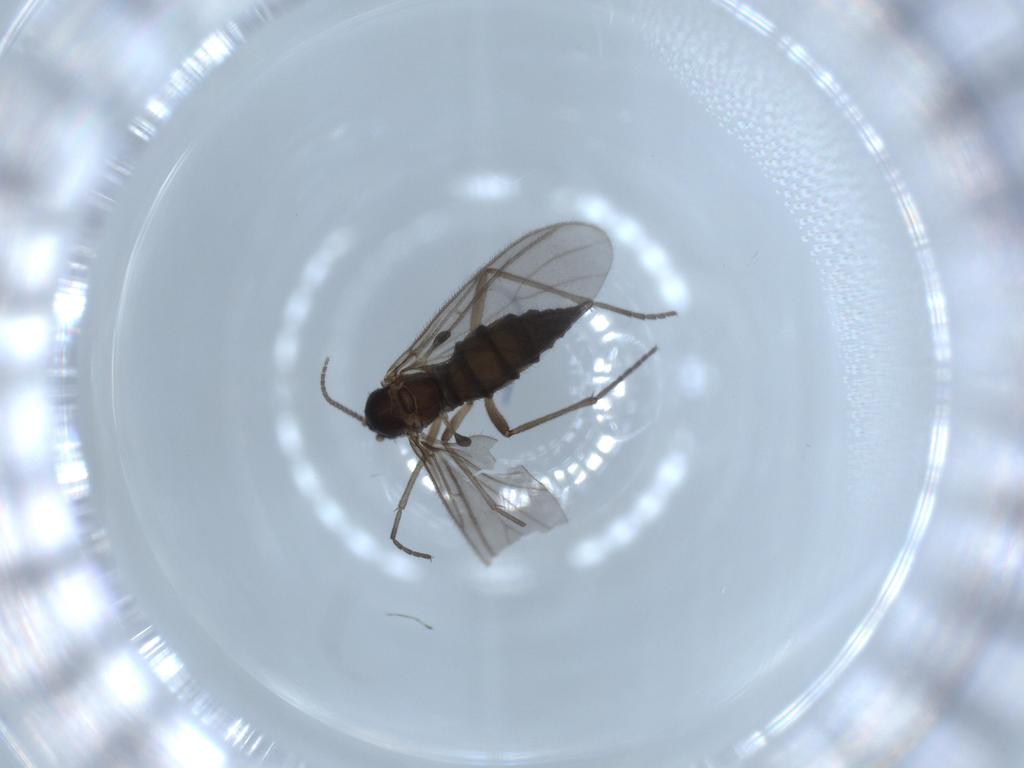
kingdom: Animalia
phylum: Arthropoda
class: Insecta
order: Diptera
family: Sciaridae
